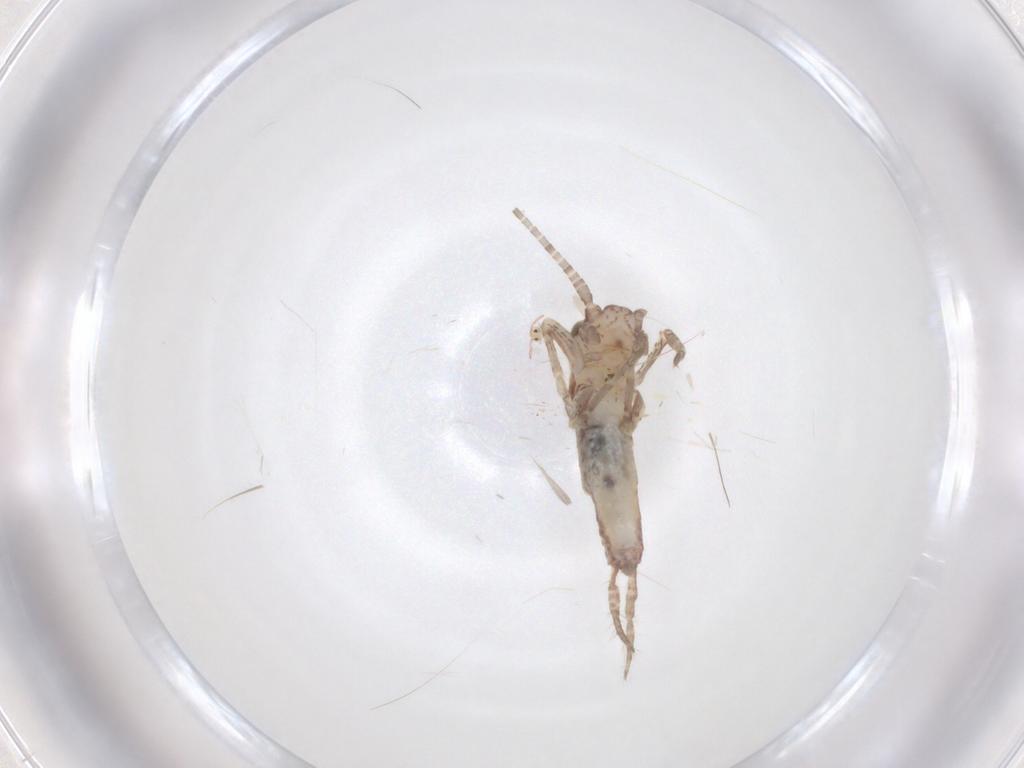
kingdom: Animalia
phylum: Arthropoda
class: Insecta
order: Orthoptera
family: Mogoplistidae
